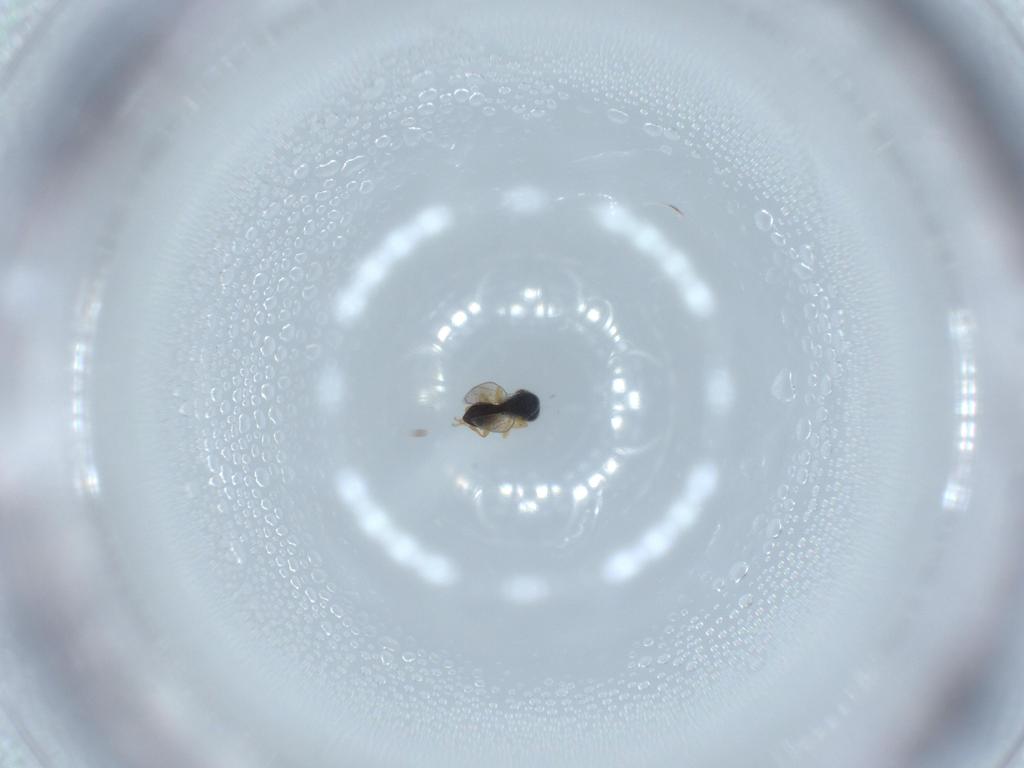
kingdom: Animalia
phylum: Arthropoda
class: Insecta
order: Hymenoptera
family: Platygastridae
